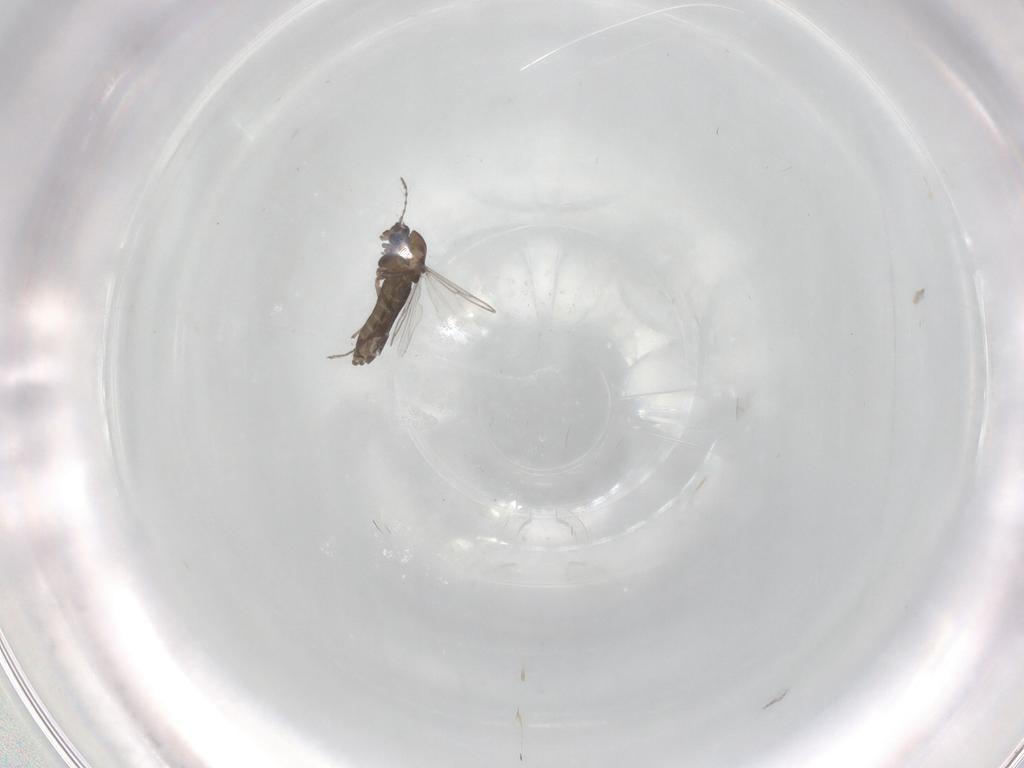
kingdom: Animalia
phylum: Arthropoda
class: Insecta
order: Diptera
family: Chironomidae
